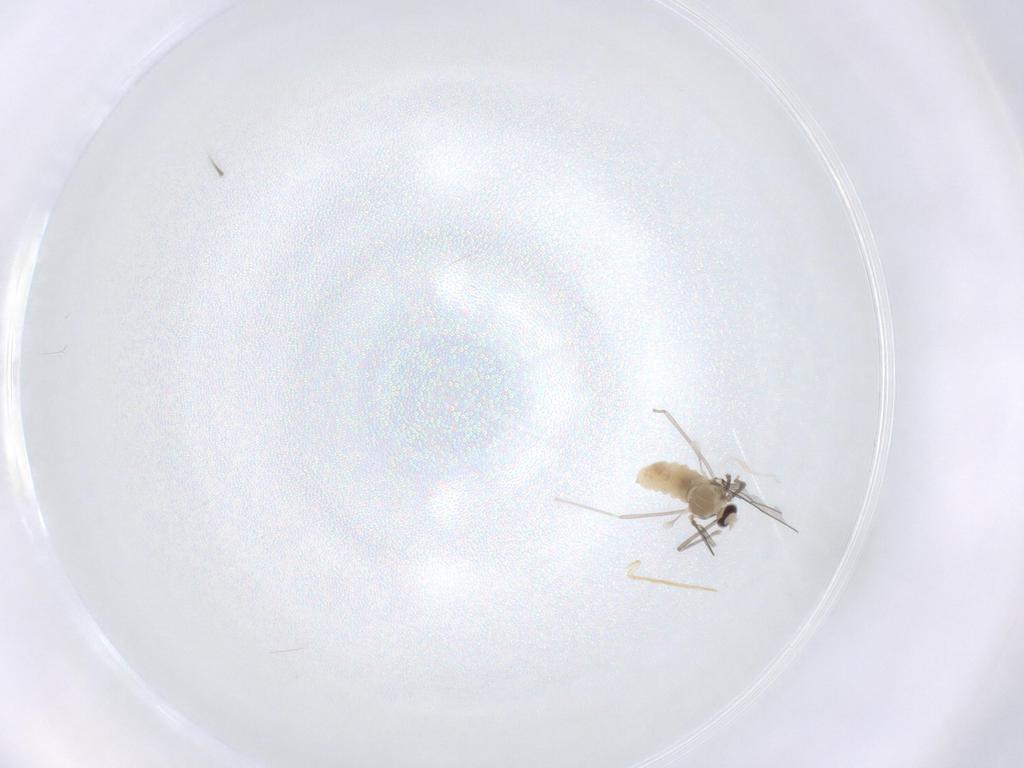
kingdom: Animalia
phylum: Arthropoda
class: Insecta
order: Diptera
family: Cecidomyiidae
